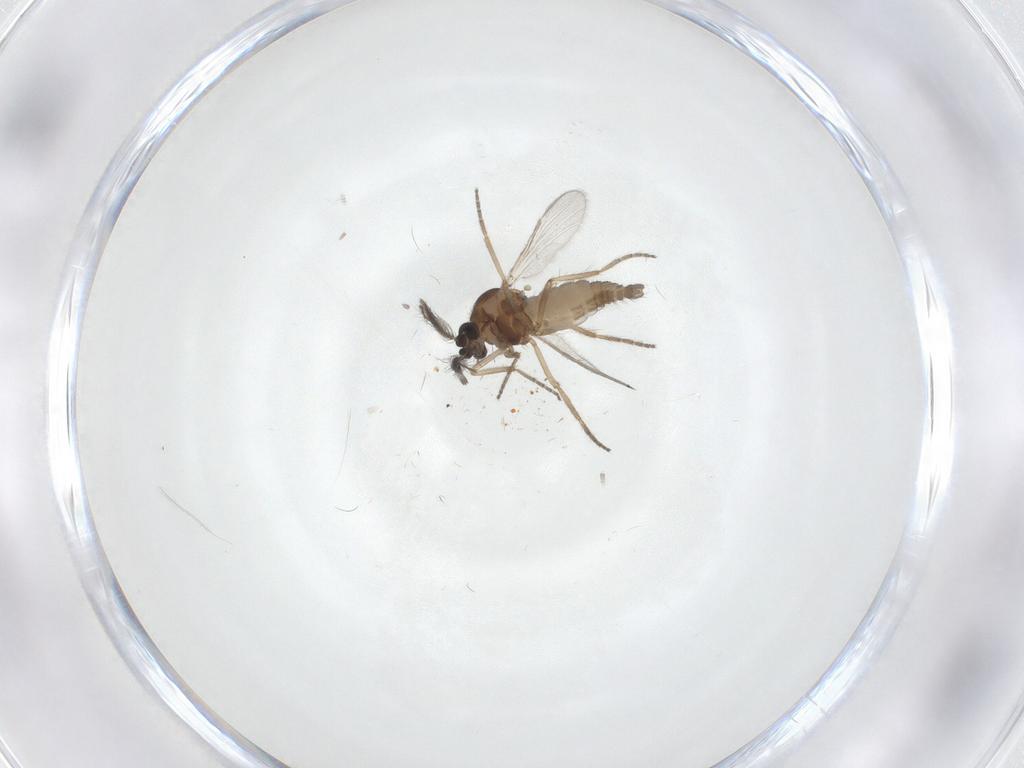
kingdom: Animalia
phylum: Arthropoda
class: Insecta
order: Diptera
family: Ceratopogonidae
